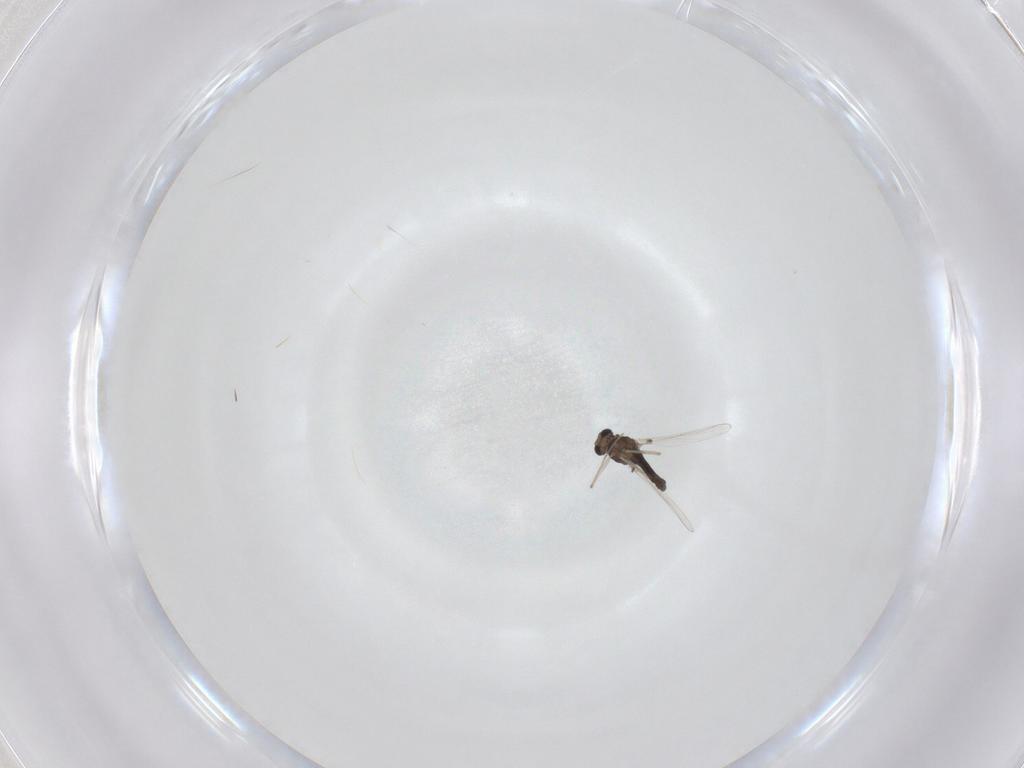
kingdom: Animalia
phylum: Arthropoda
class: Insecta
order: Diptera
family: Chironomidae
